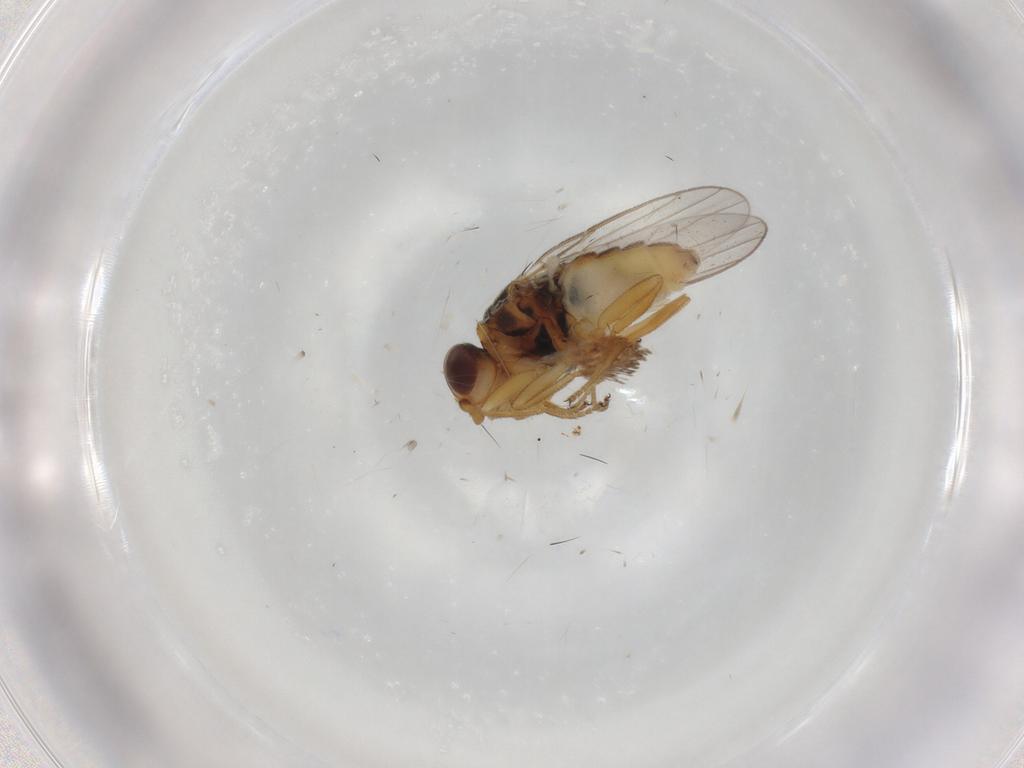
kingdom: Animalia
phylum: Arthropoda
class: Insecta
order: Diptera
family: Chloropidae
